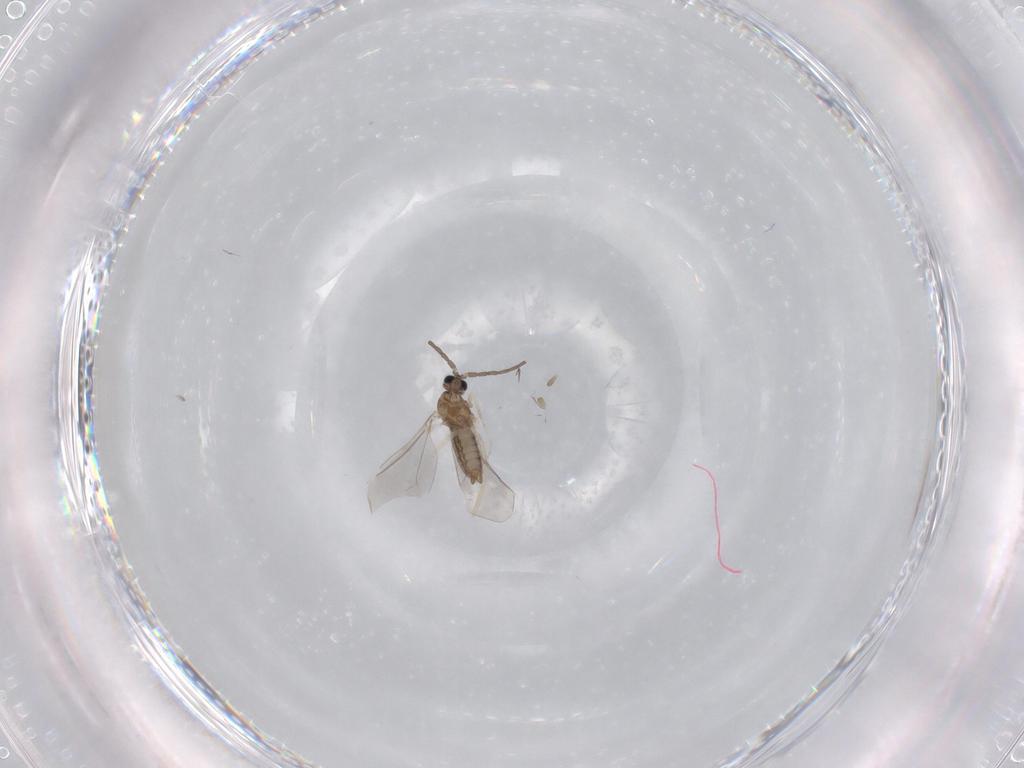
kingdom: Animalia
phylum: Arthropoda
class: Insecta
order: Diptera
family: Cecidomyiidae
